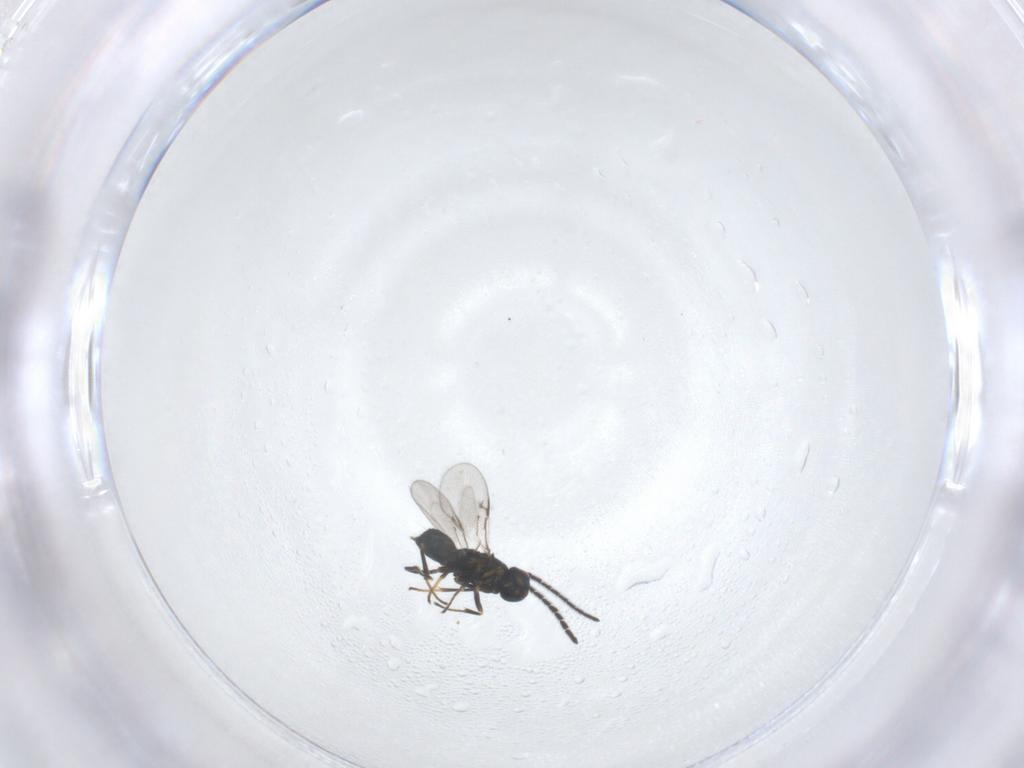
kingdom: Animalia
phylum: Arthropoda
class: Insecta
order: Hymenoptera
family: Encyrtidae
